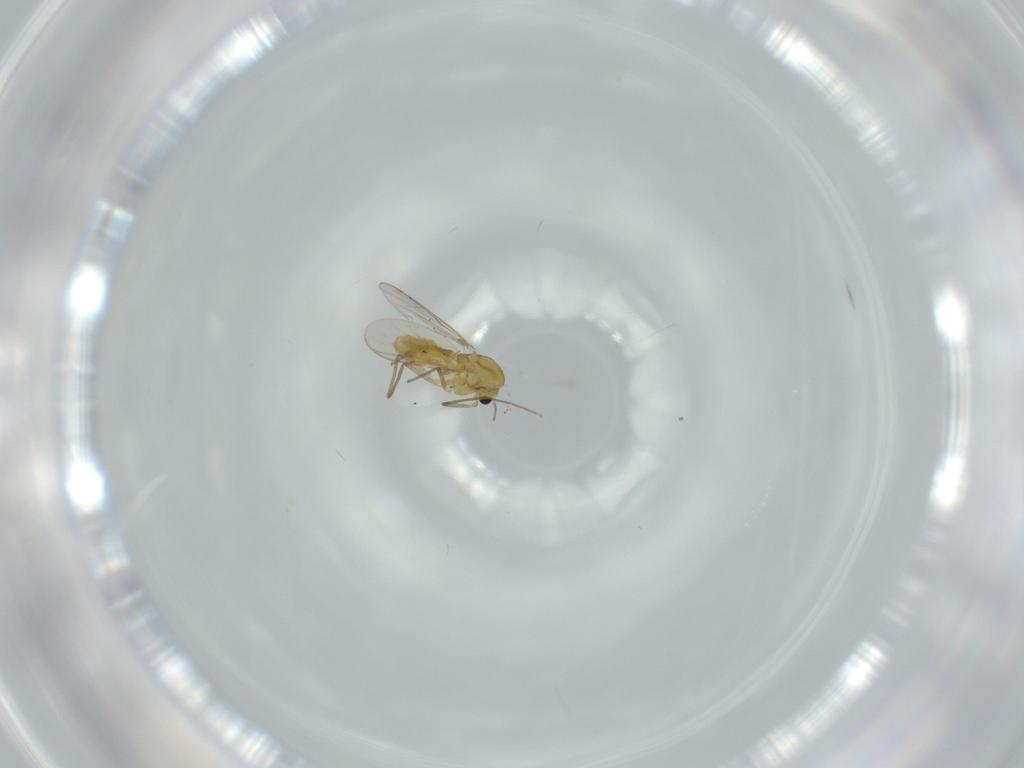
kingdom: Animalia
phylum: Arthropoda
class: Insecta
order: Diptera
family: Chironomidae
